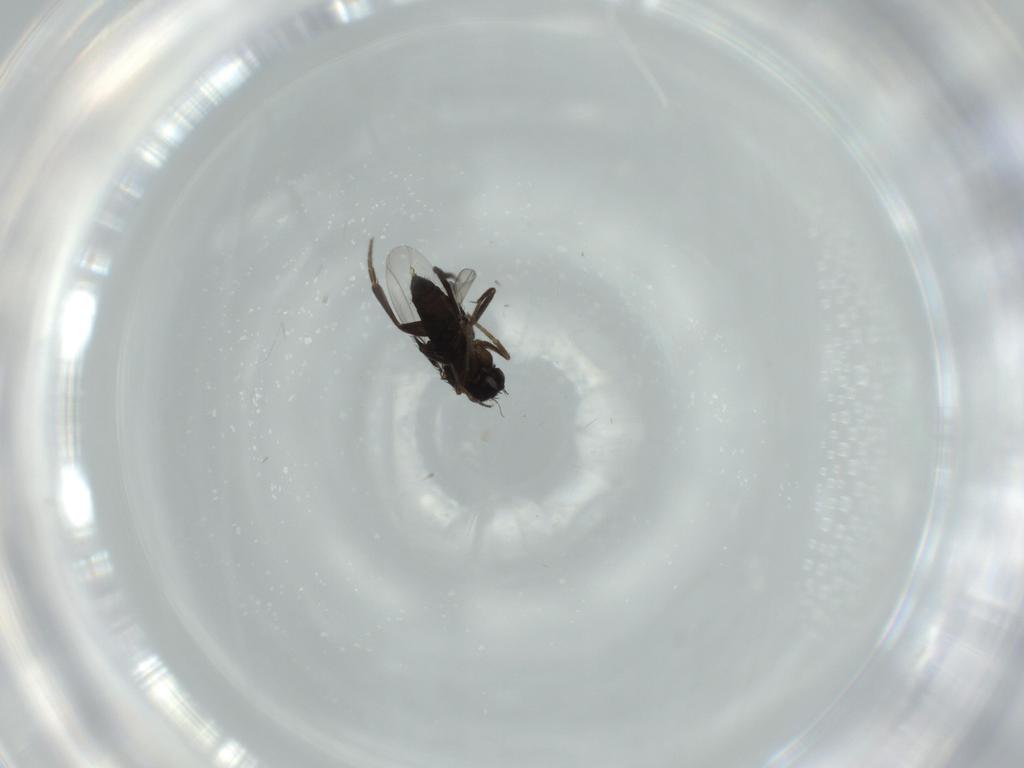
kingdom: Animalia
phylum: Arthropoda
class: Insecta
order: Diptera
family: Phoridae
